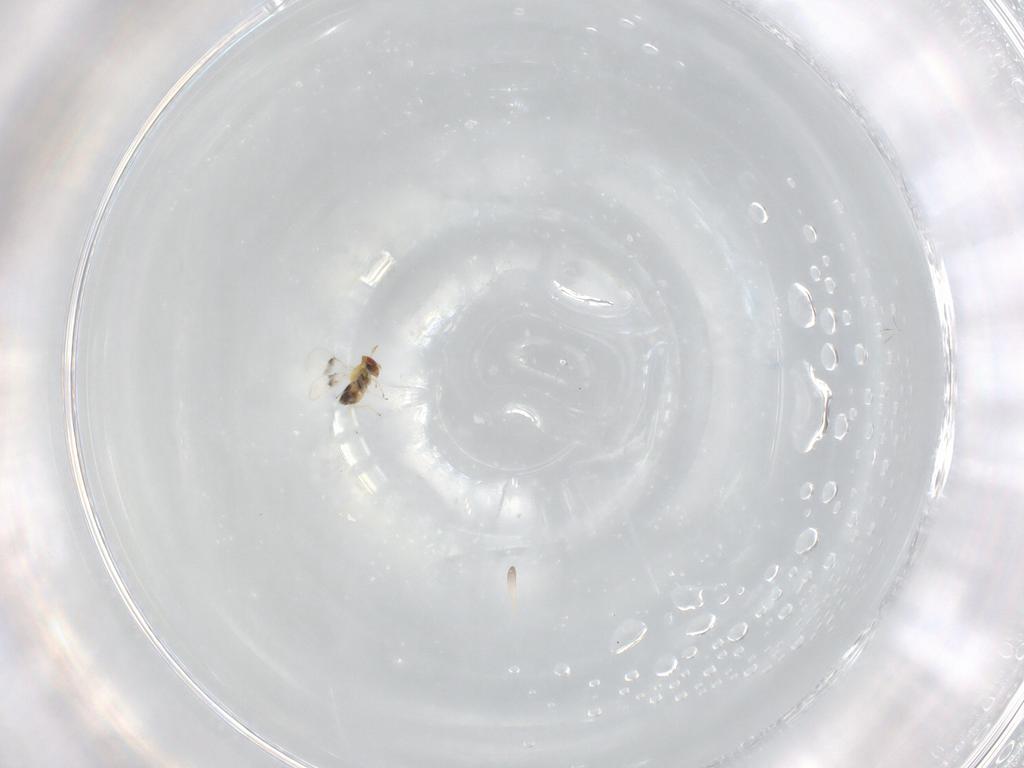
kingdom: Animalia
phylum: Arthropoda
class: Insecta
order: Hymenoptera
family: Trichogrammatidae
